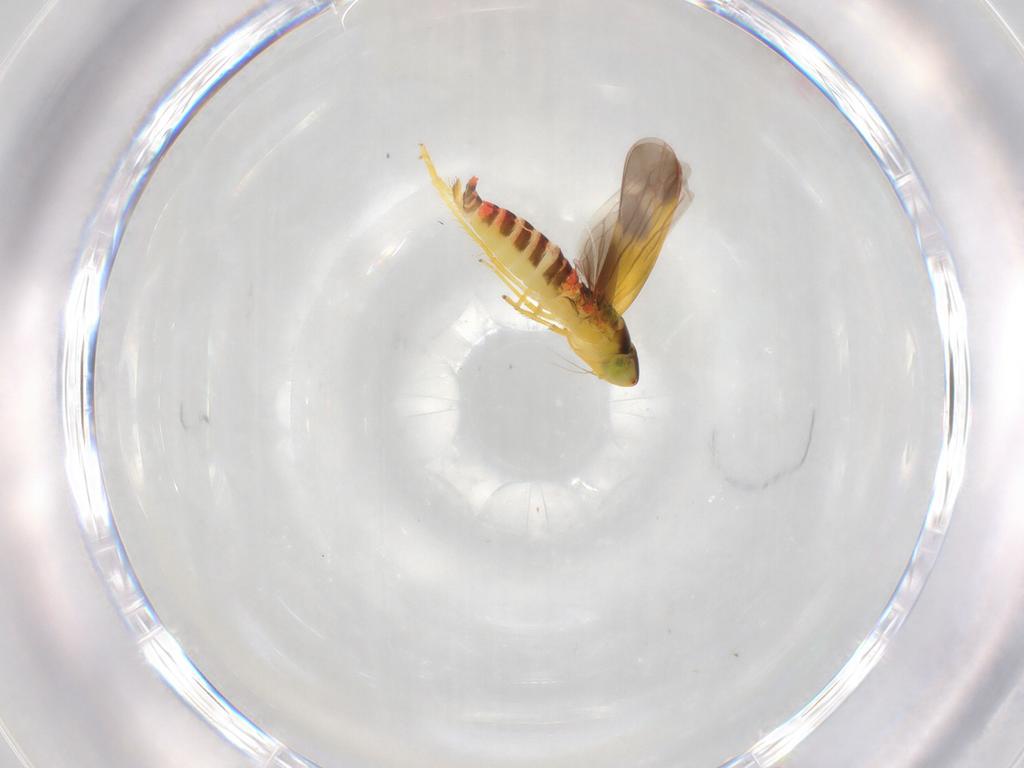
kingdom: Animalia
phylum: Arthropoda
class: Insecta
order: Hemiptera
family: Cicadellidae
